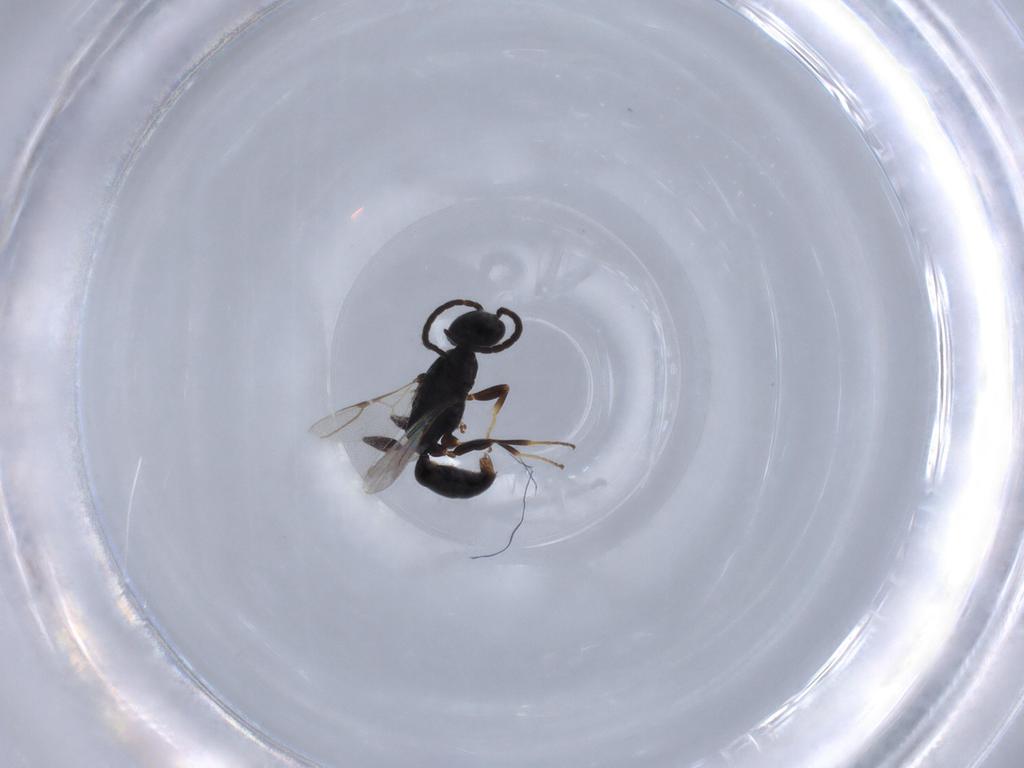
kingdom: Animalia
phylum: Arthropoda
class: Insecta
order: Hymenoptera
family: Bethylidae
